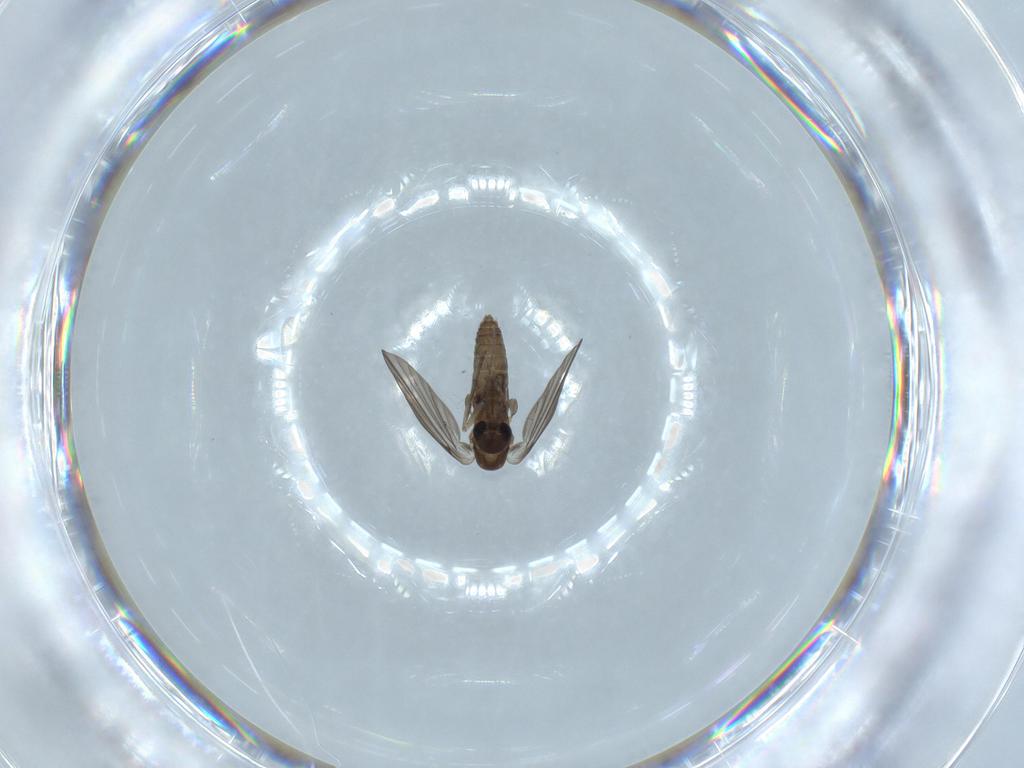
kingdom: Animalia
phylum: Arthropoda
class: Insecta
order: Diptera
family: Psychodidae
